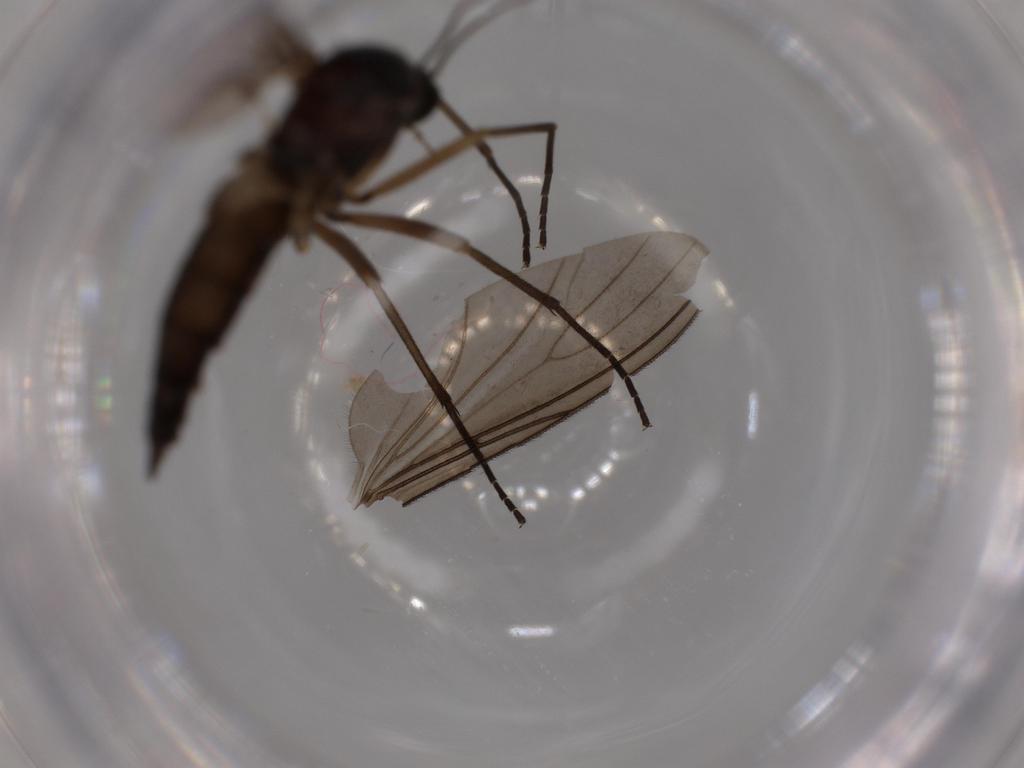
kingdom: Animalia
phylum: Arthropoda
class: Insecta
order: Diptera
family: Sciaridae
